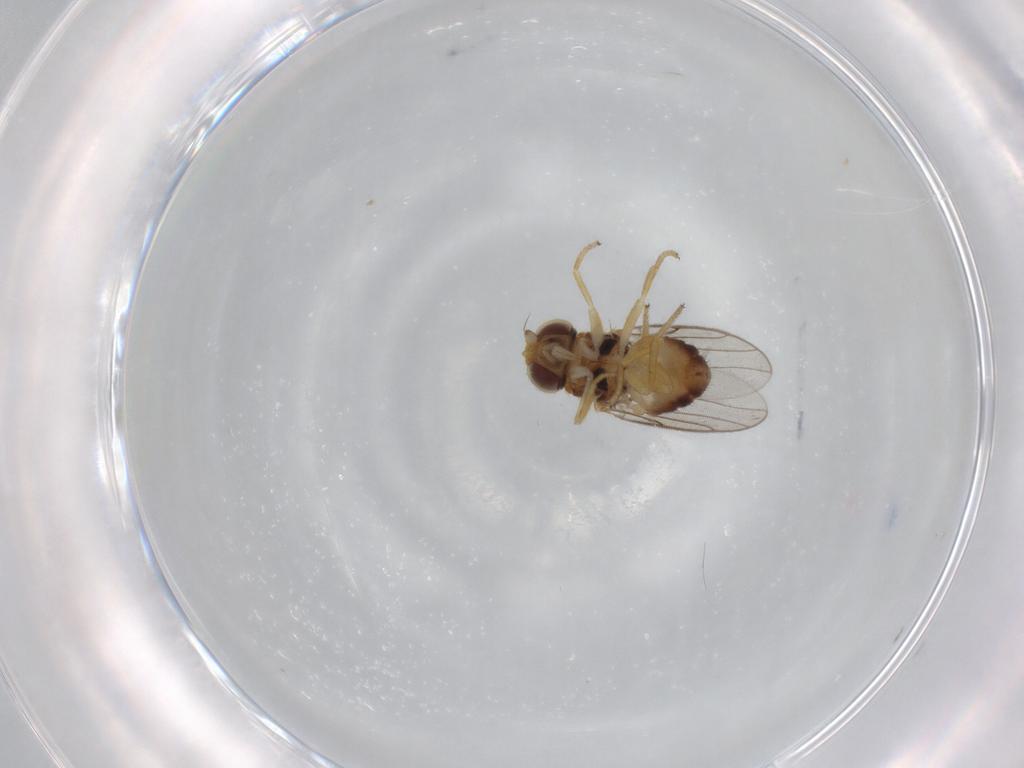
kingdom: Animalia
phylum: Arthropoda
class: Insecta
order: Diptera
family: Chloropidae
